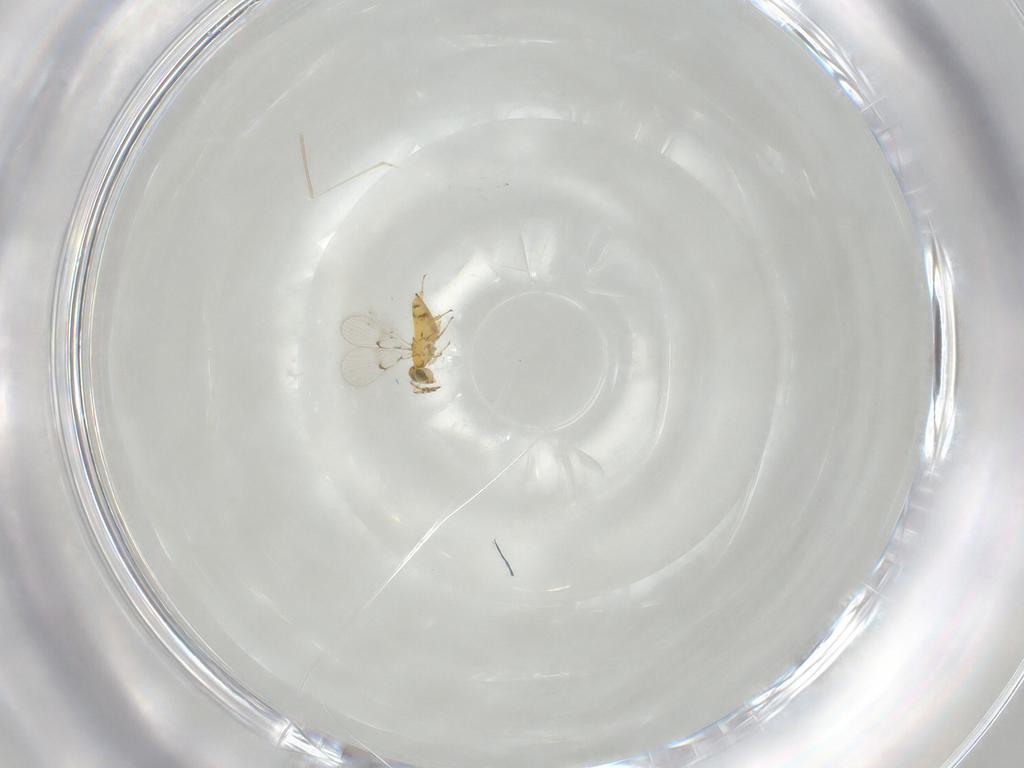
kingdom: Animalia
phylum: Arthropoda
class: Insecta
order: Hymenoptera
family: Trichogrammatidae
